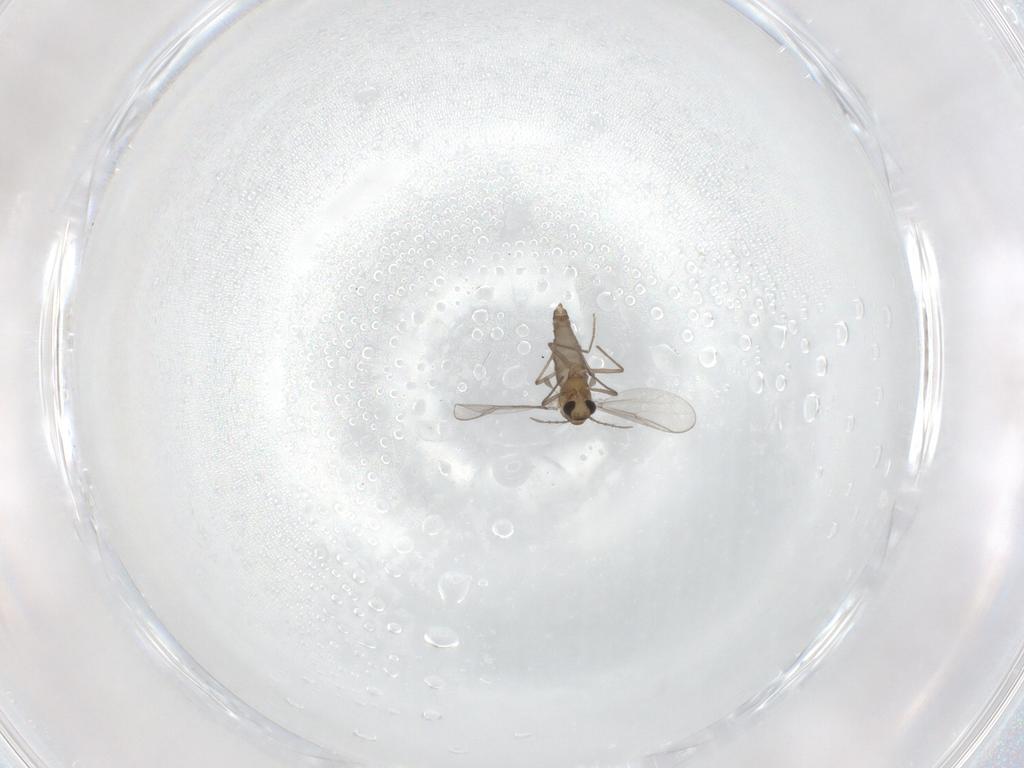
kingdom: Animalia
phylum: Arthropoda
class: Insecta
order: Diptera
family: Chironomidae
